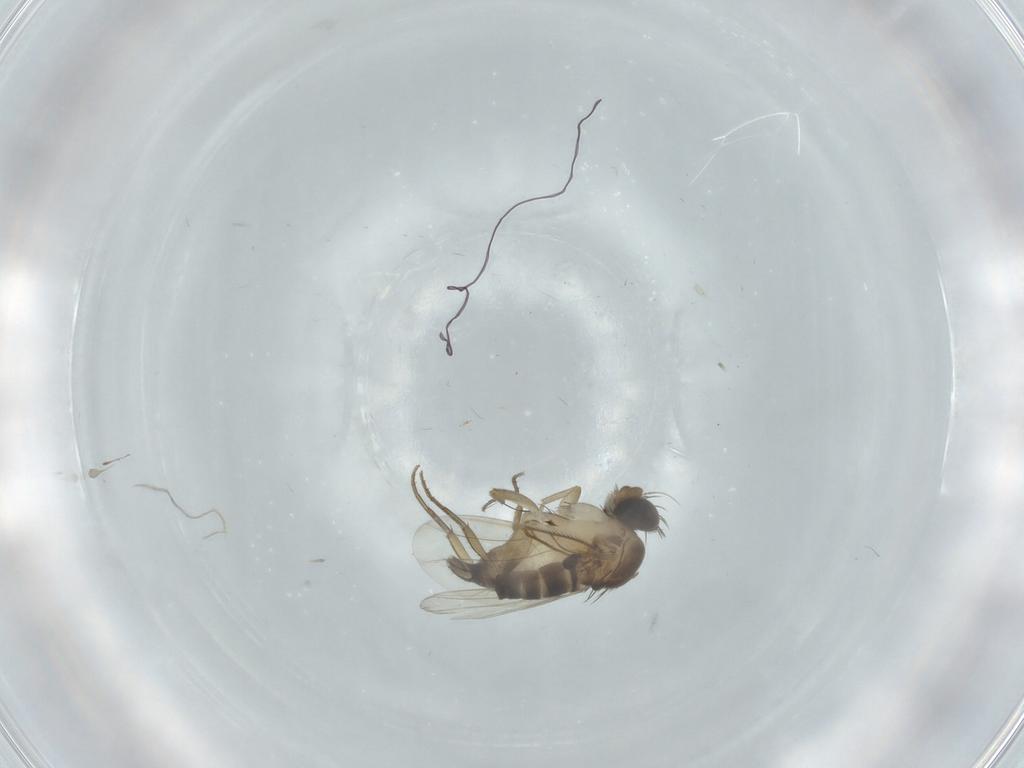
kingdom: Animalia
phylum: Arthropoda
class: Insecta
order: Diptera
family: Phoridae
